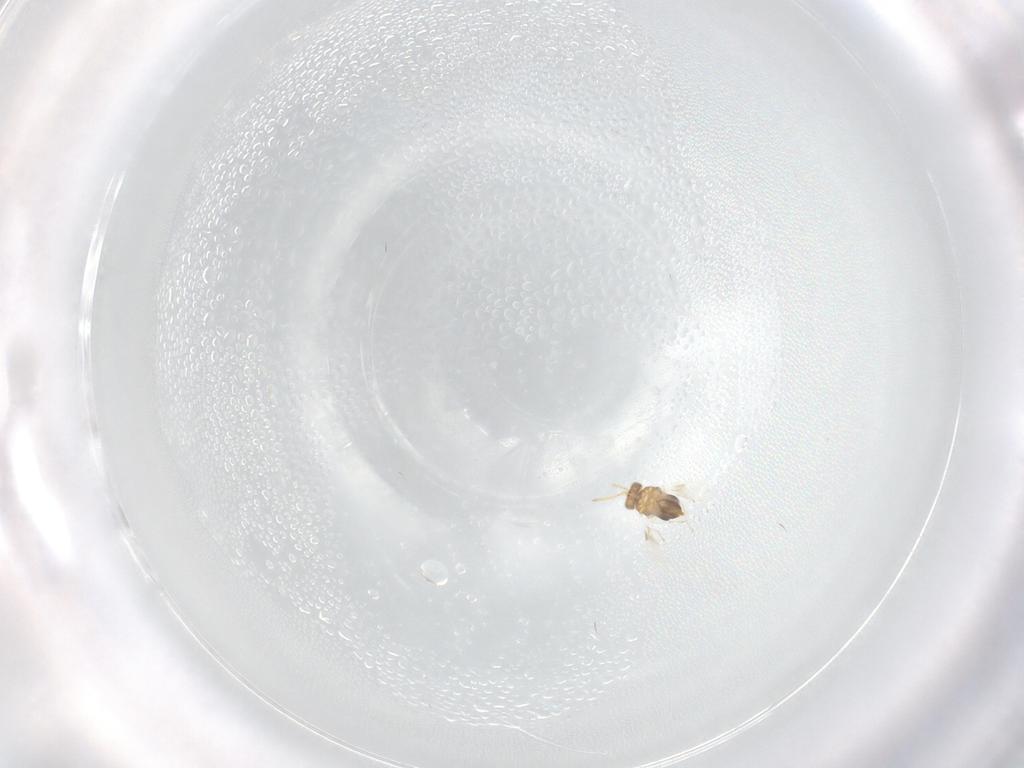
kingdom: Animalia
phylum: Arthropoda
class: Insecta
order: Hymenoptera
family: Aphelinidae
